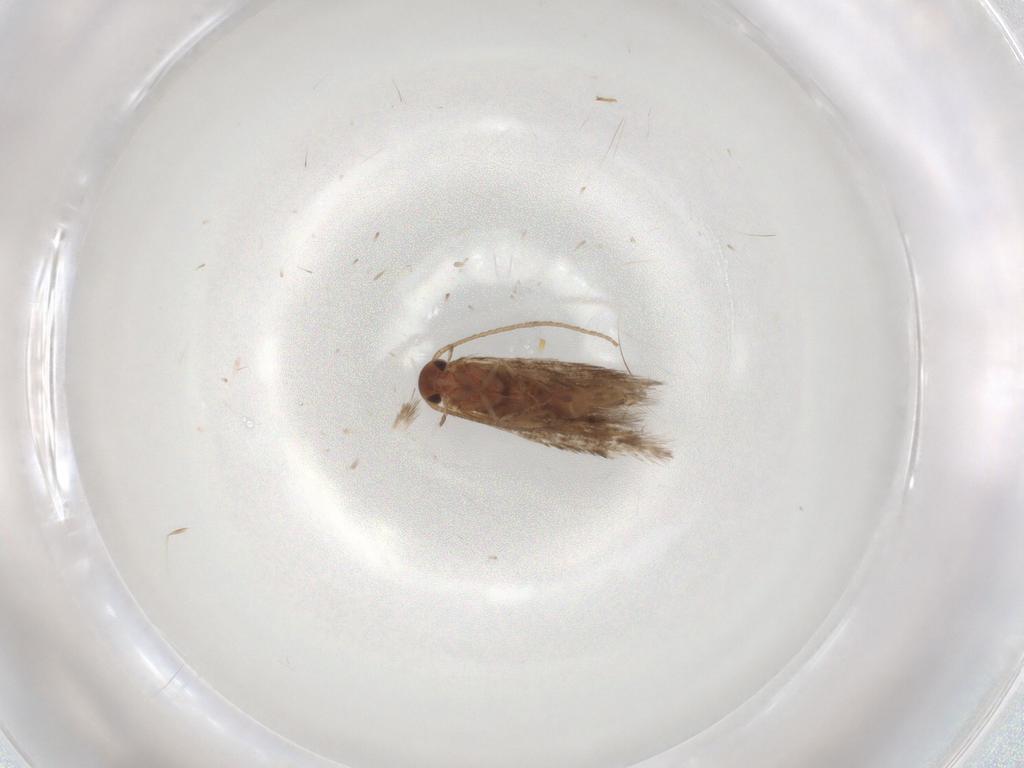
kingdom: Animalia
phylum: Arthropoda
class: Insecta
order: Lepidoptera
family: Elachistidae
